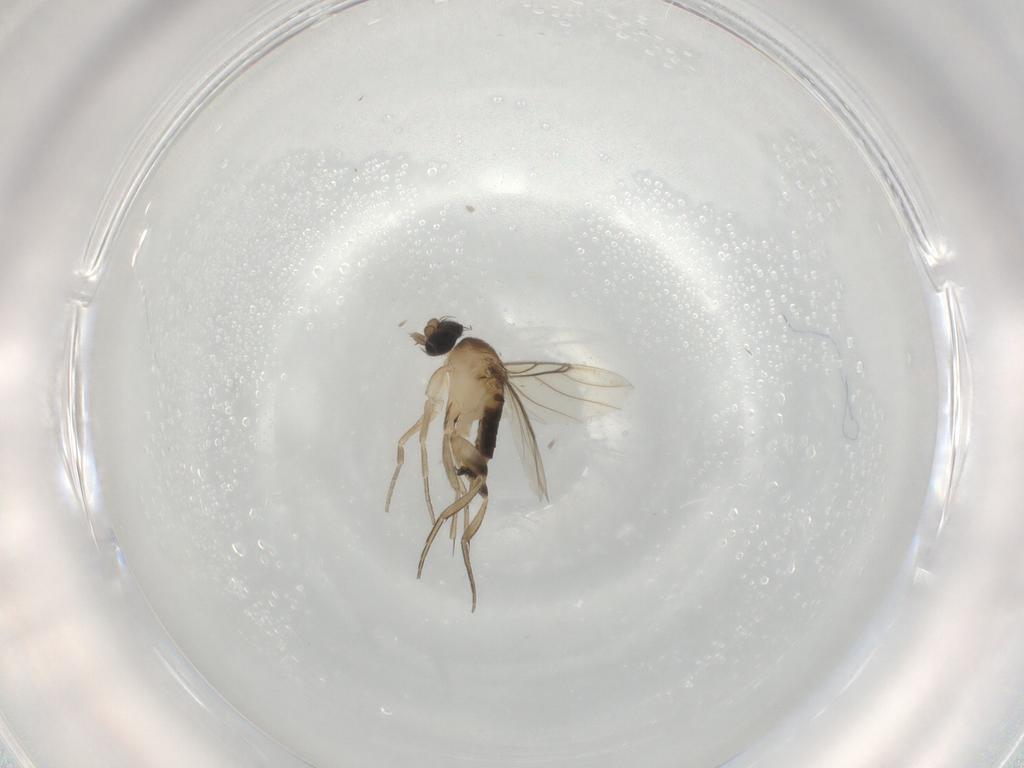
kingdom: Animalia
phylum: Arthropoda
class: Insecta
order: Diptera
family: Phoridae
